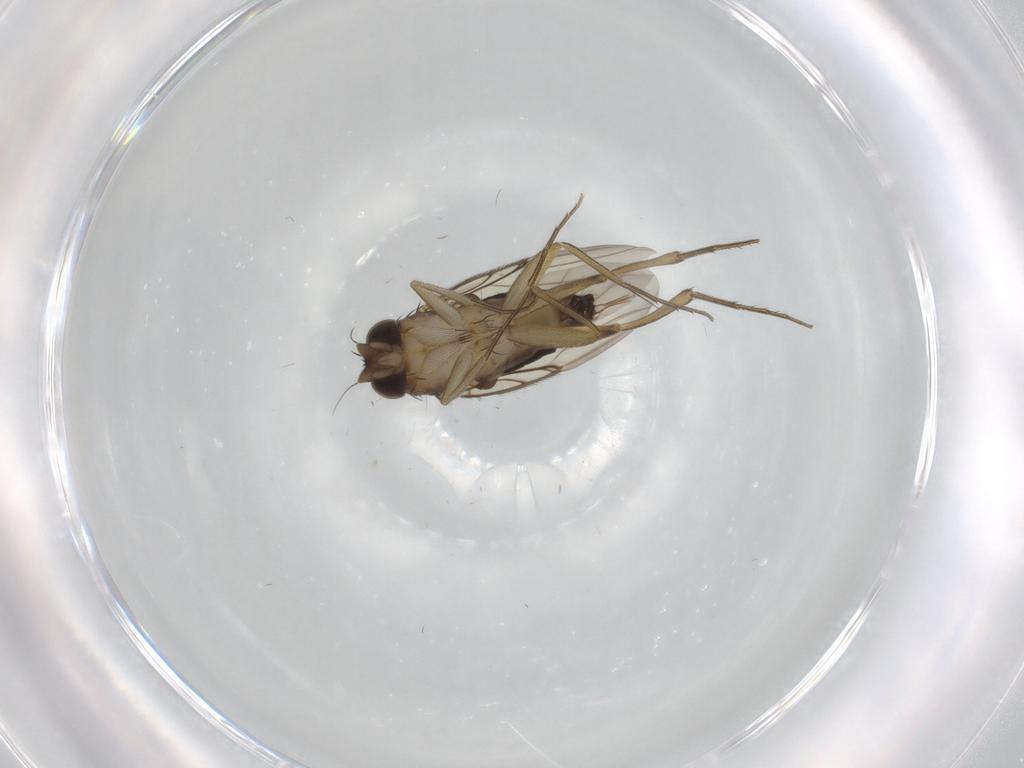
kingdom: Animalia
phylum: Arthropoda
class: Insecta
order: Diptera
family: Phoridae
